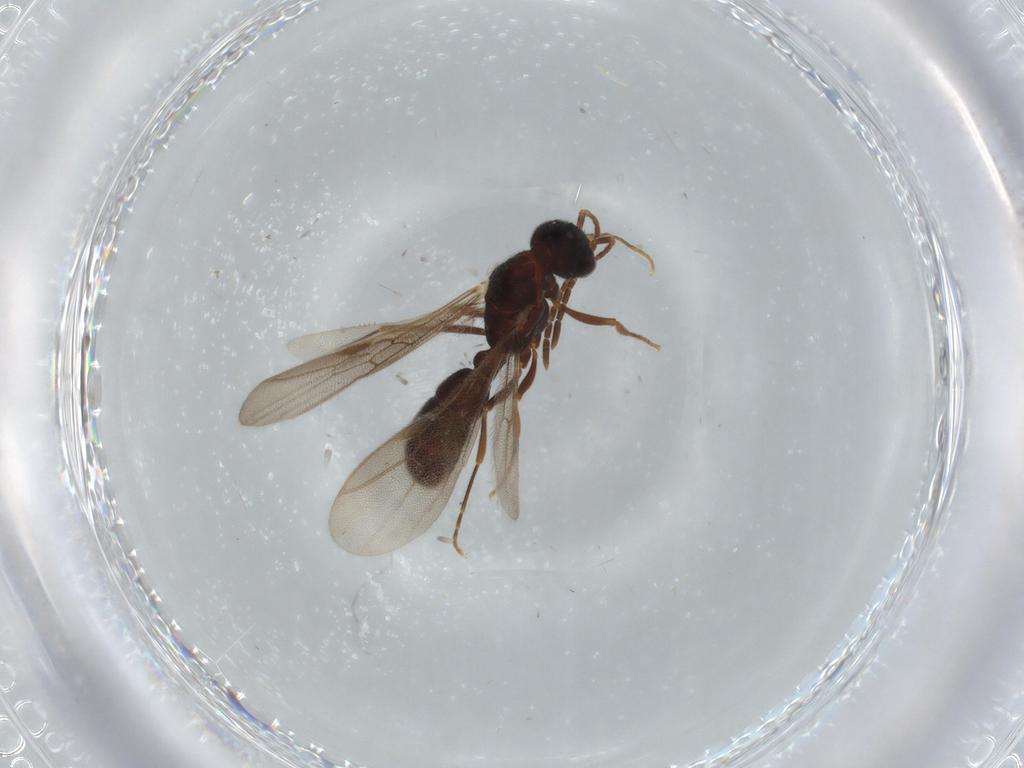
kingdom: Animalia
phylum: Arthropoda
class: Insecta
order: Hymenoptera
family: Formicidae
